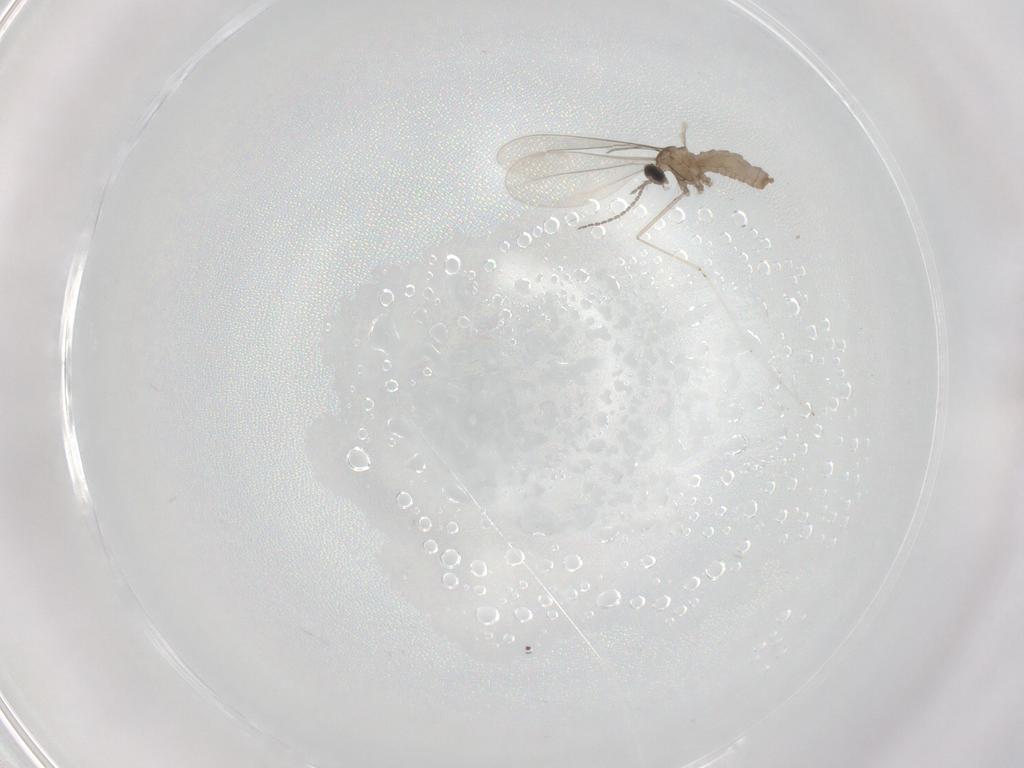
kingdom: Animalia
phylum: Arthropoda
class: Insecta
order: Diptera
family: Cecidomyiidae
